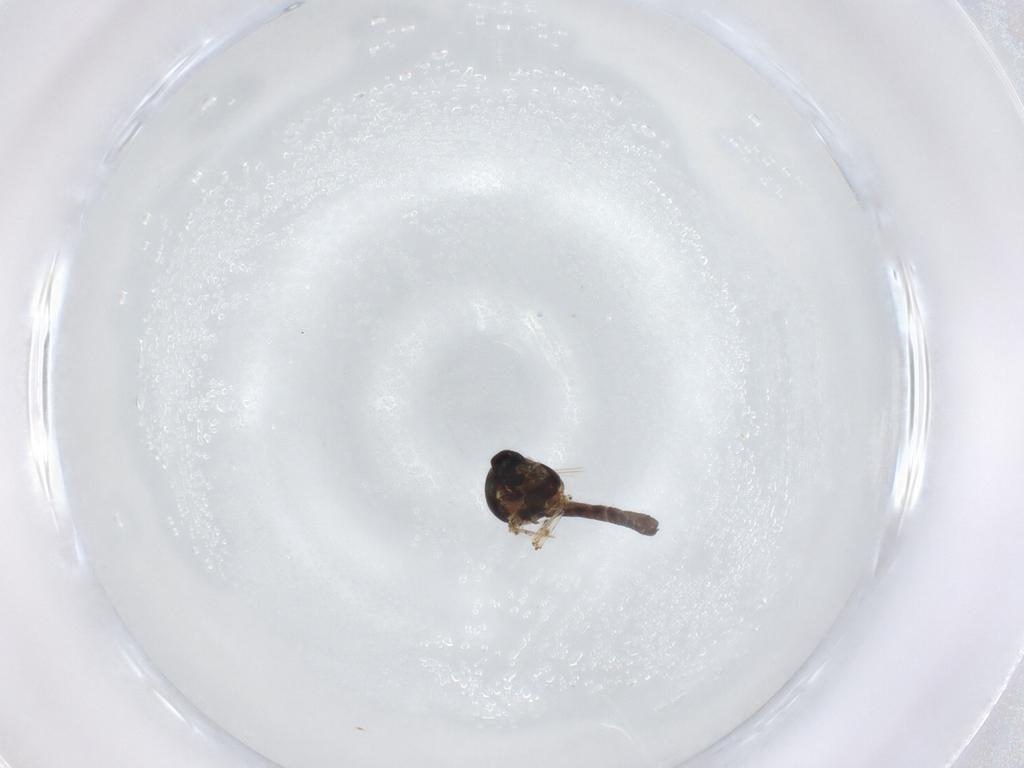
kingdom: Animalia
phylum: Arthropoda
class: Insecta
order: Diptera
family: Ceratopogonidae
